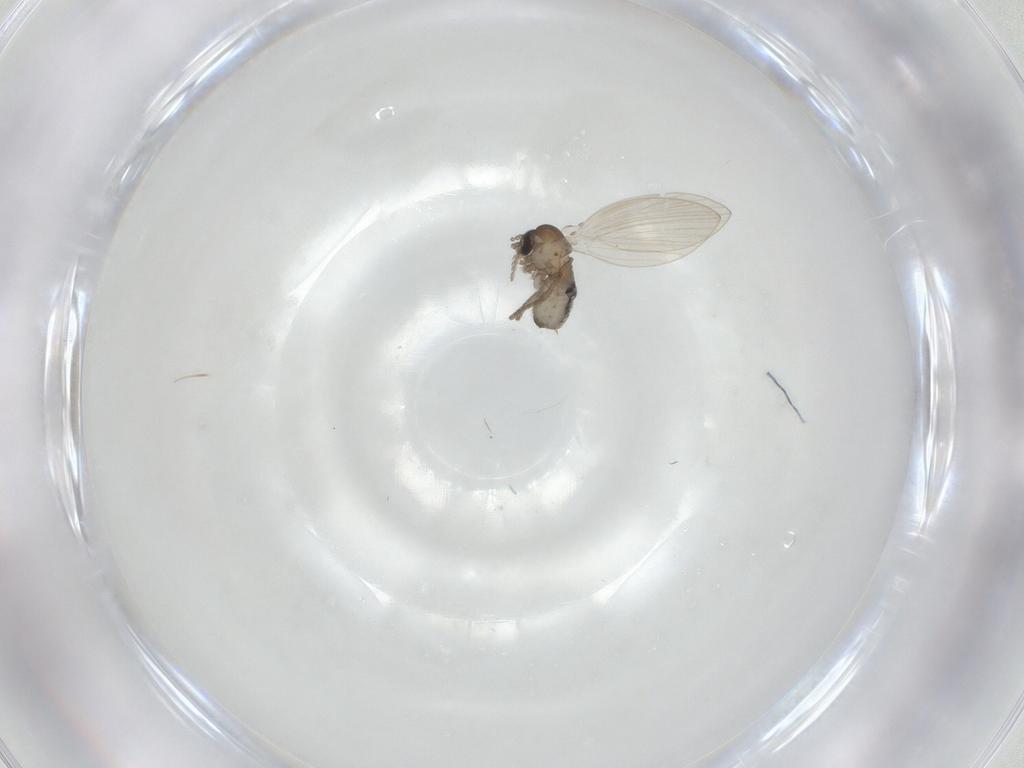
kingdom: Animalia
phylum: Arthropoda
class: Insecta
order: Diptera
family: Psychodidae
